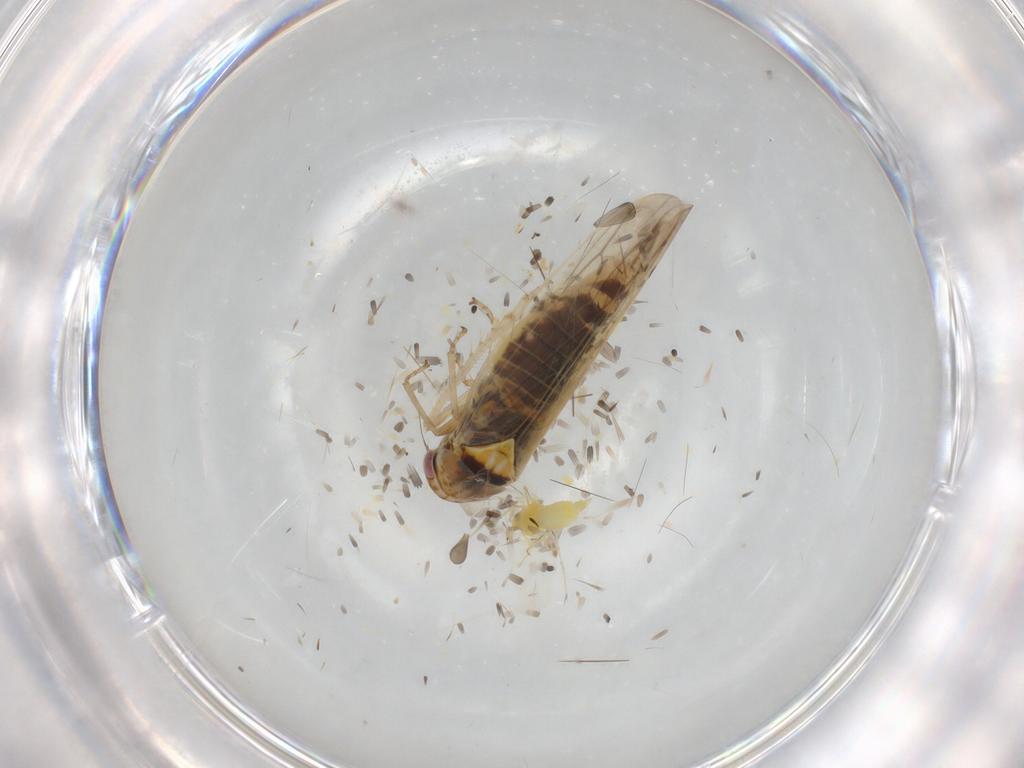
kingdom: Animalia
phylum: Arthropoda
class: Insecta
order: Hemiptera
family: Cicadellidae
